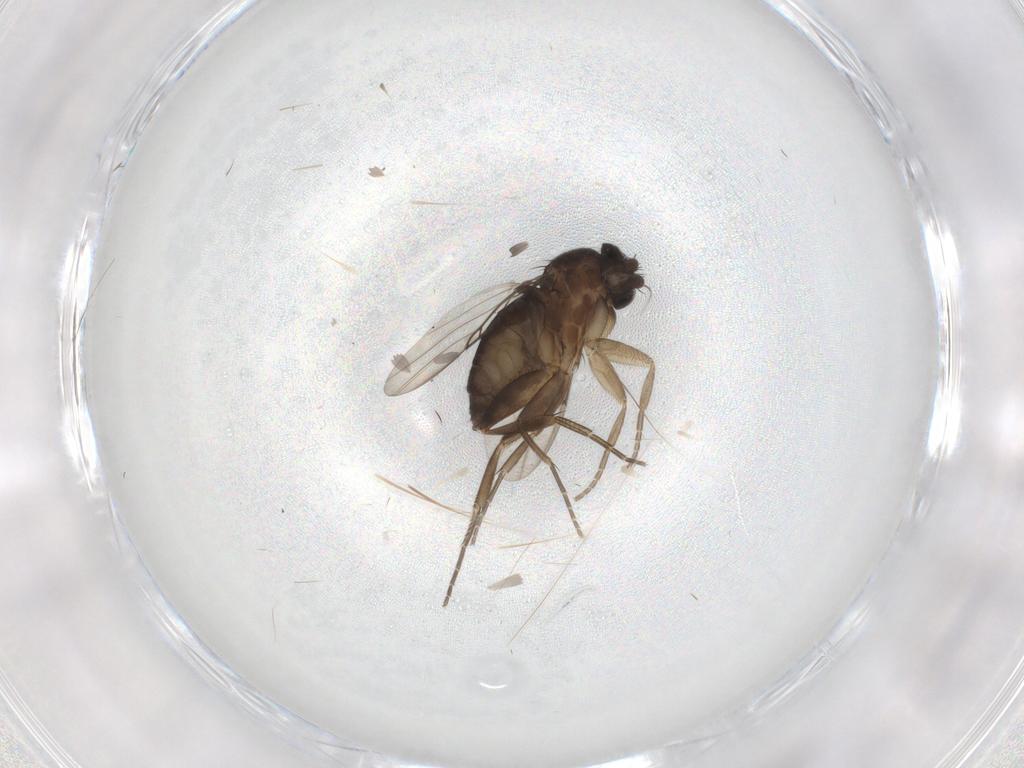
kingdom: Animalia
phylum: Arthropoda
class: Insecta
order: Diptera
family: Phoridae
